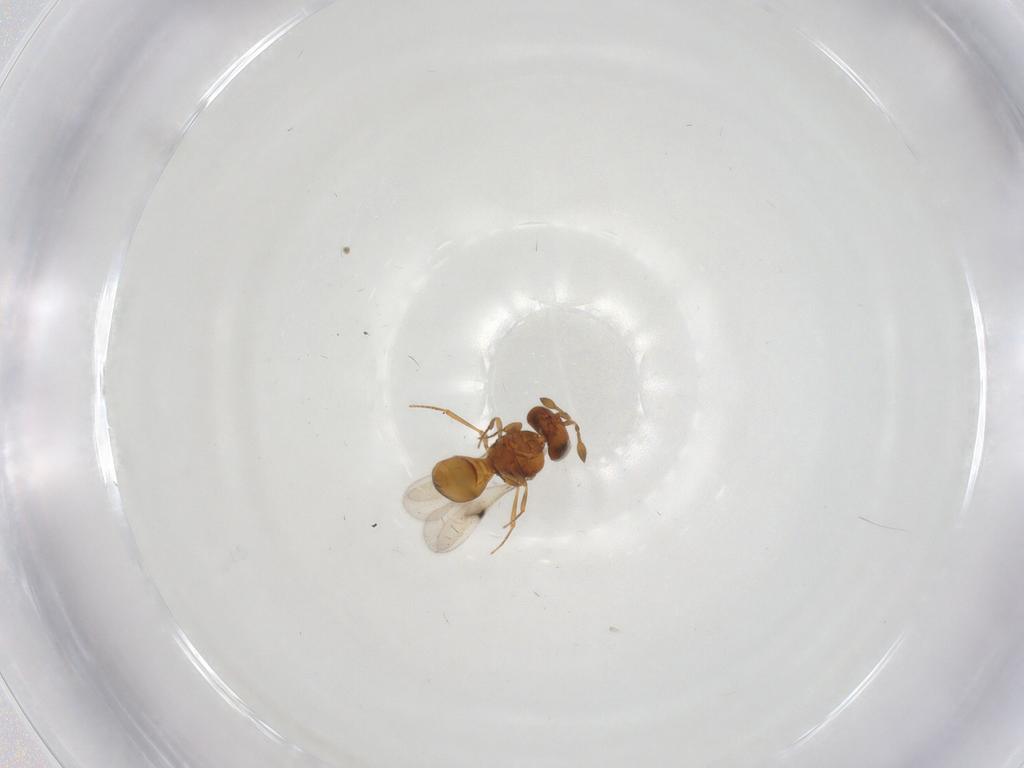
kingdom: Animalia
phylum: Arthropoda
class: Insecta
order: Hymenoptera
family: Scelionidae
